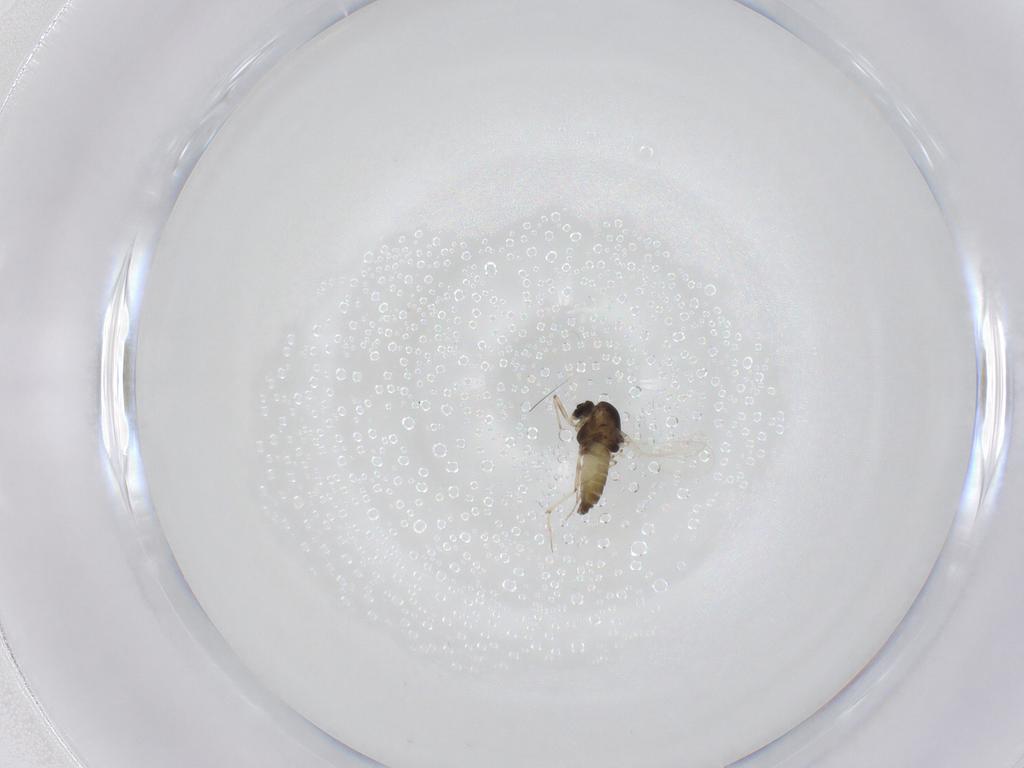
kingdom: Animalia
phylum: Arthropoda
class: Insecta
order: Diptera
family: Chironomidae
